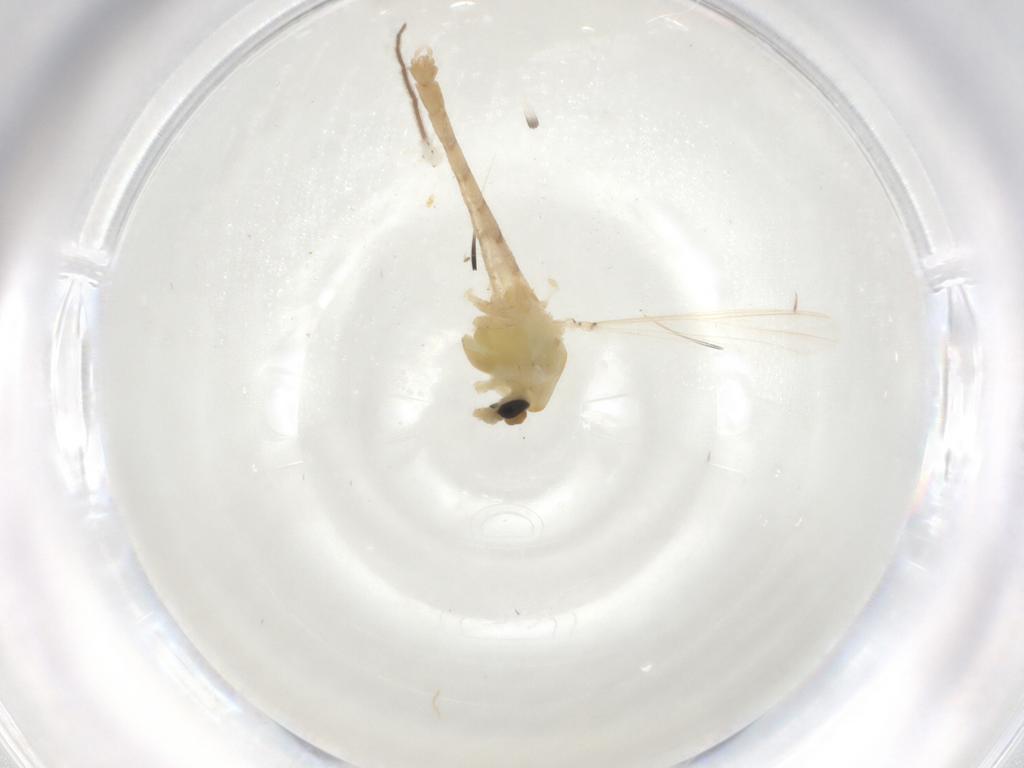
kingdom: Animalia
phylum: Arthropoda
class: Insecta
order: Diptera
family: Chironomidae
